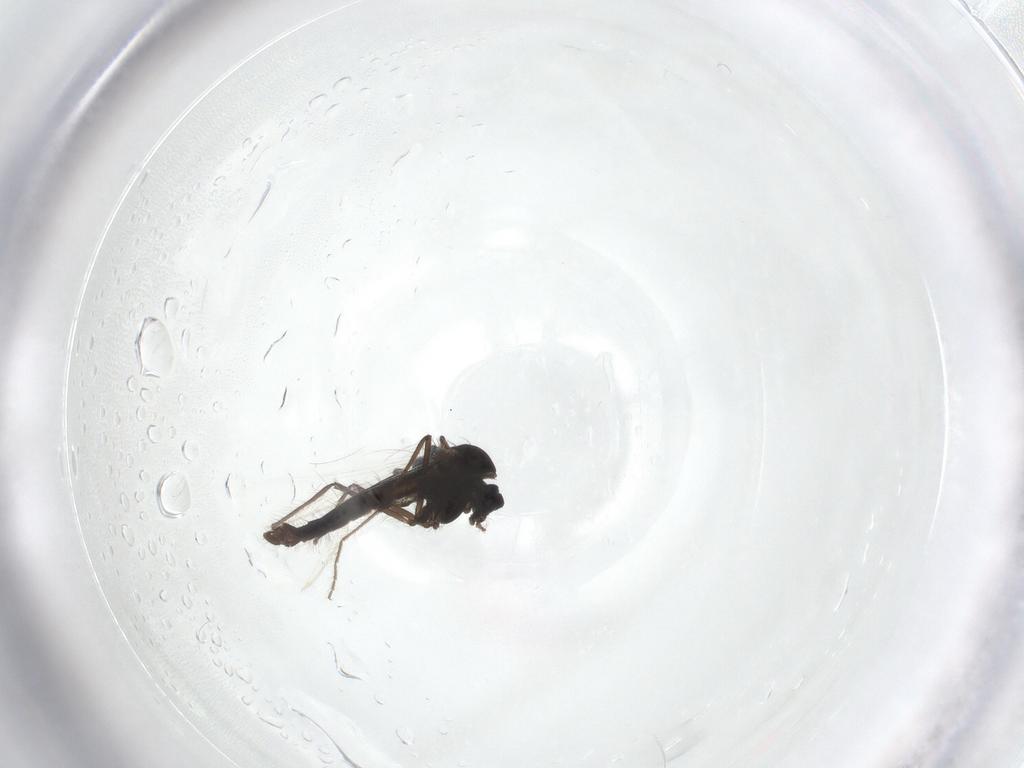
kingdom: Animalia
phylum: Arthropoda
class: Insecta
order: Diptera
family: Chironomidae
